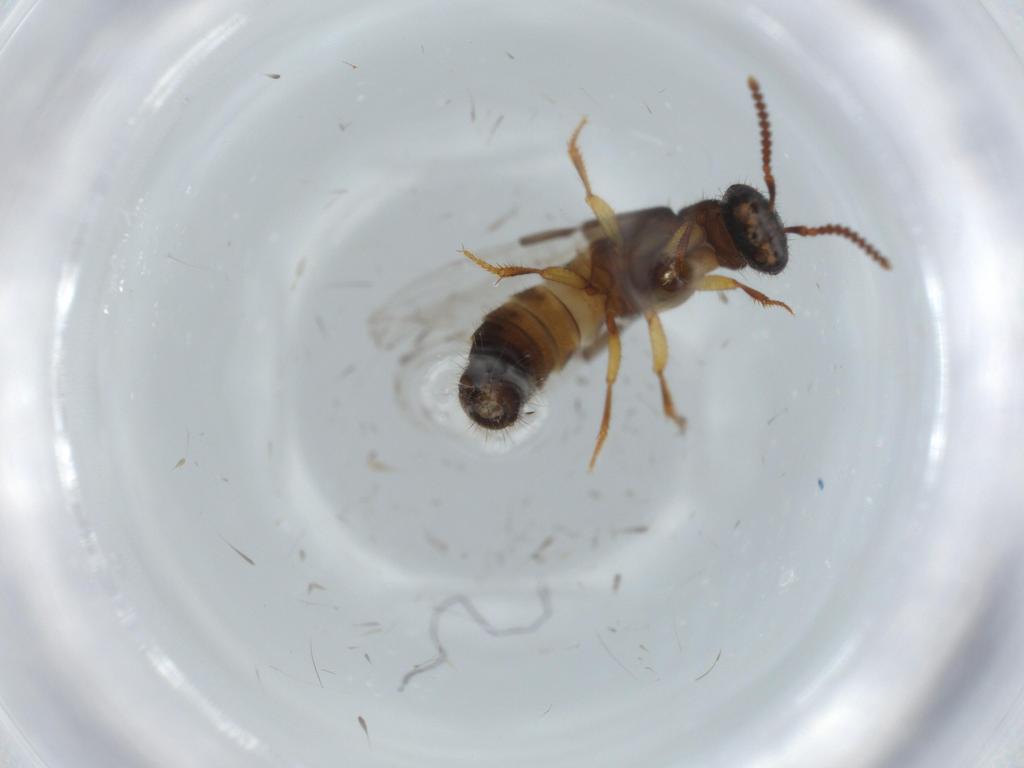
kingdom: Animalia
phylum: Arthropoda
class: Insecta
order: Coleoptera
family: Staphylinidae
